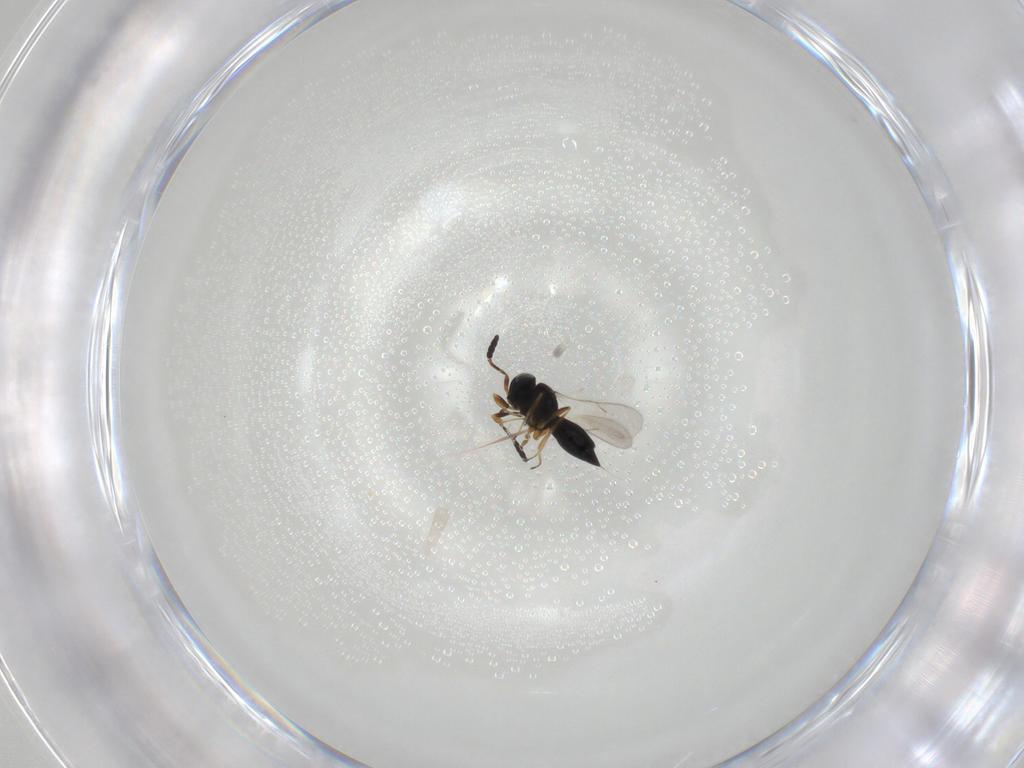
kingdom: Animalia
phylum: Arthropoda
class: Insecta
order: Hymenoptera
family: Scelionidae
